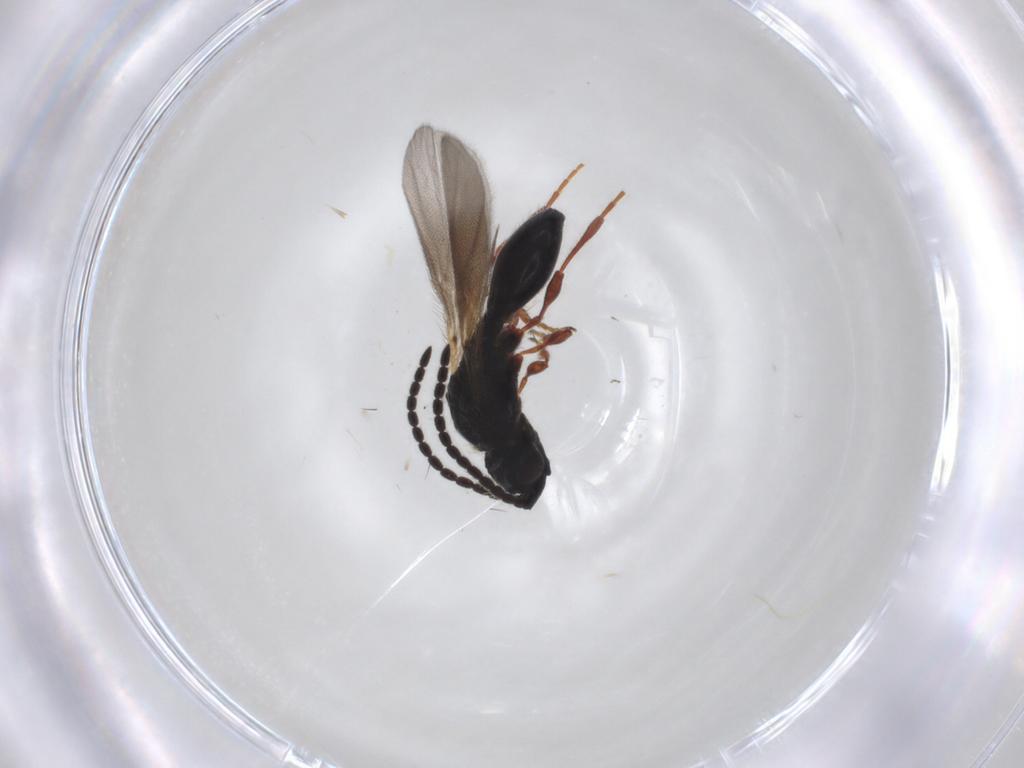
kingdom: Animalia
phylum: Arthropoda
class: Insecta
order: Hymenoptera
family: Diapriidae
